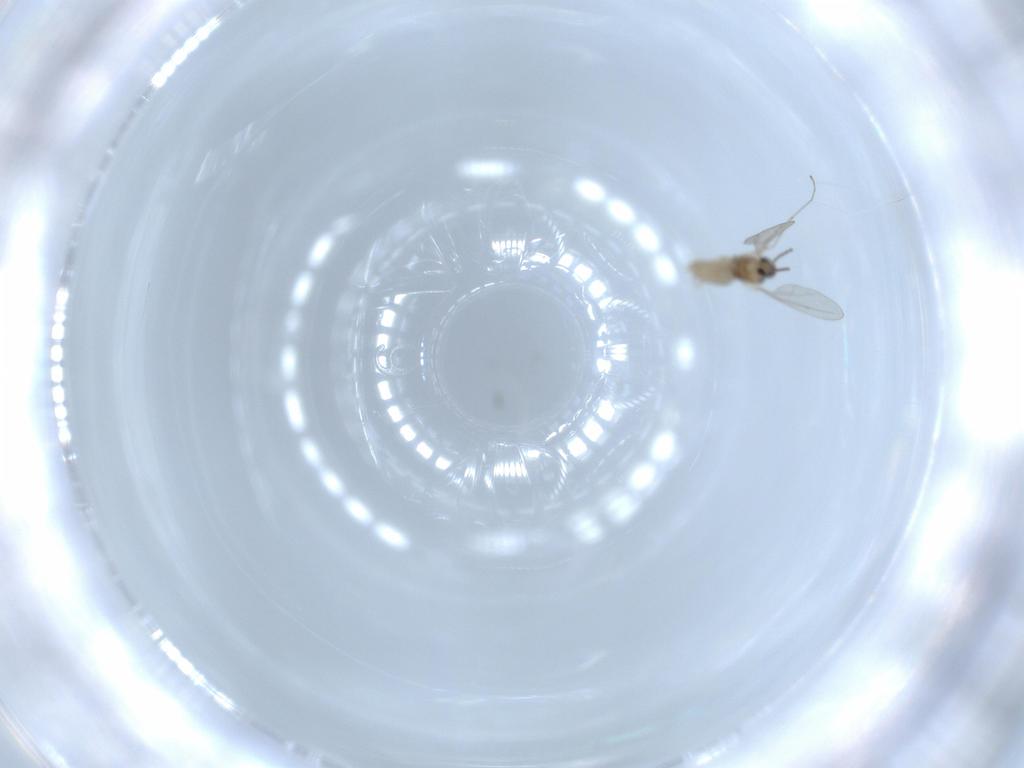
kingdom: Animalia
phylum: Arthropoda
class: Insecta
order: Diptera
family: Cecidomyiidae
